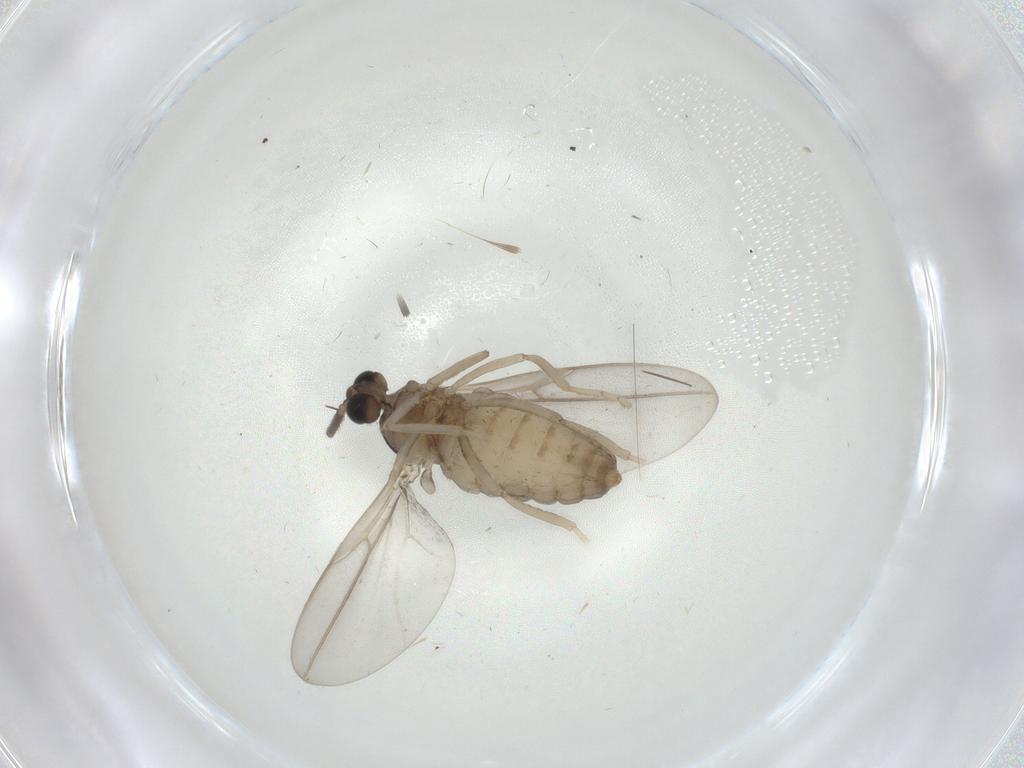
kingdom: Animalia
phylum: Arthropoda
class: Insecta
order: Diptera
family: Cecidomyiidae
